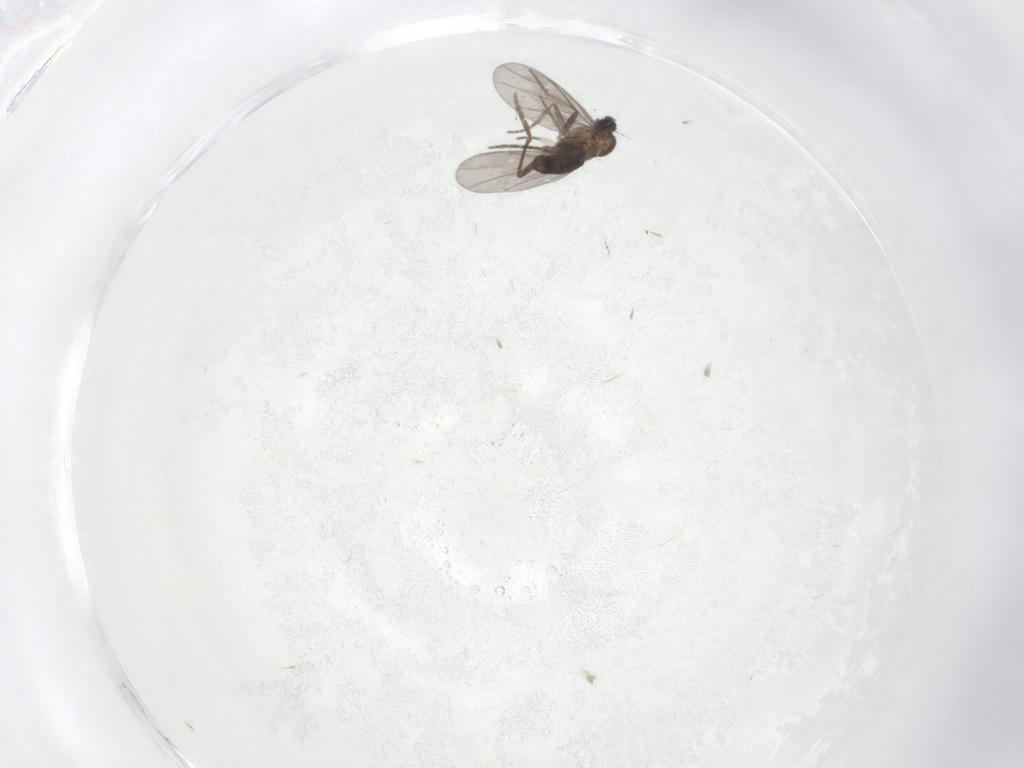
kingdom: Animalia
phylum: Arthropoda
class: Insecta
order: Diptera
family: Phoridae
